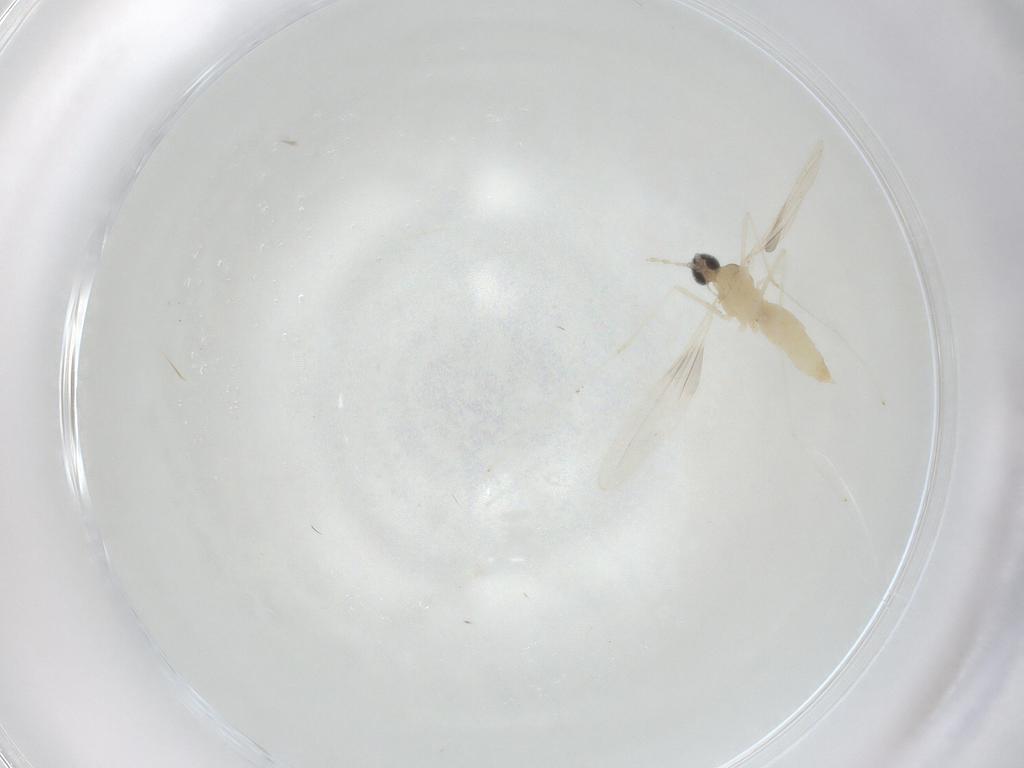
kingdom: Animalia
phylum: Arthropoda
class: Insecta
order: Diptera
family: Cecidomyiidae
